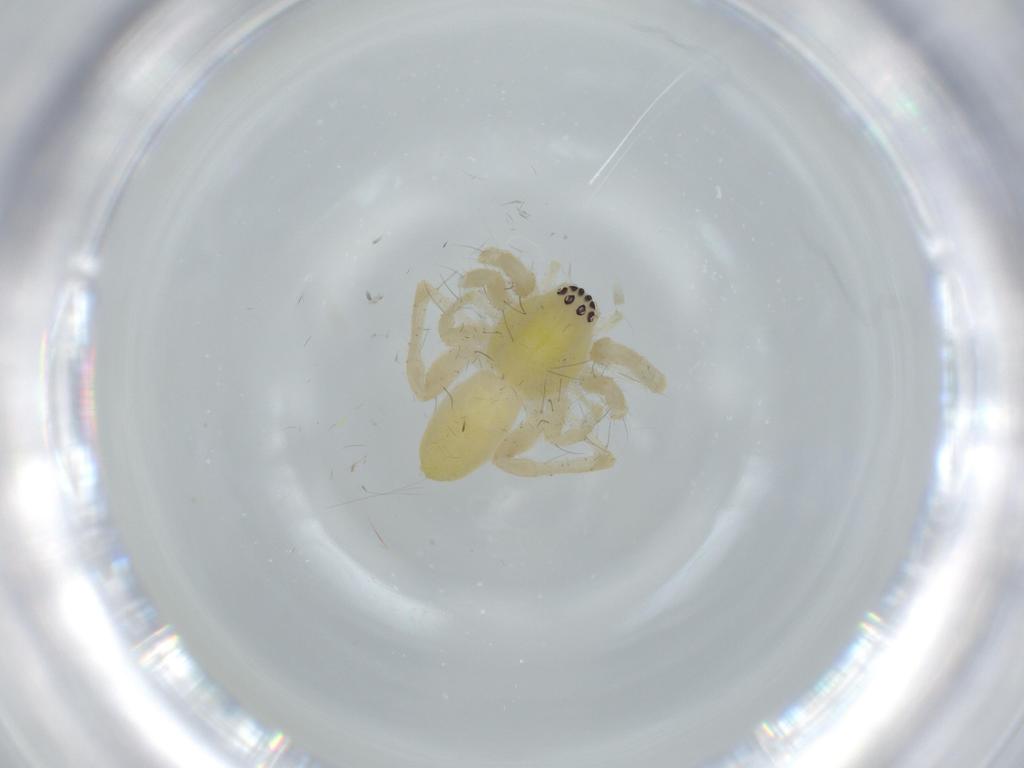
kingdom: Animalia
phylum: Arthropoda
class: Arachnida
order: Araneae
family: Anyphaenidae
